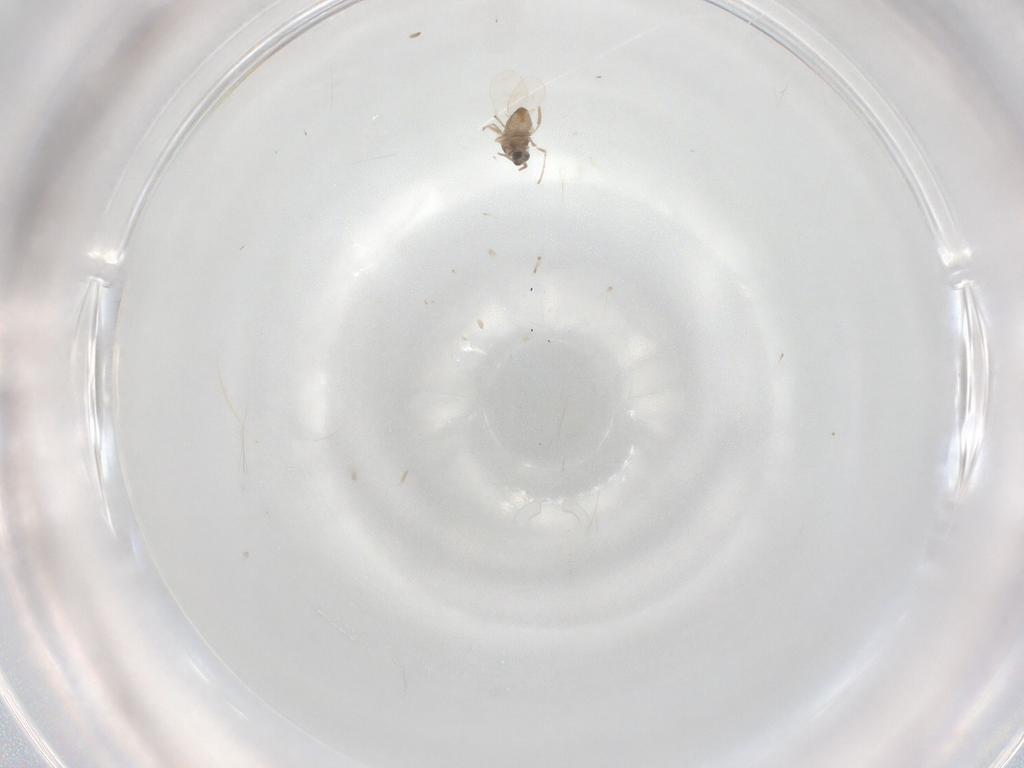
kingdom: Animalia
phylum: Arthropoda
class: Insecta
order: Diptera
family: Cecidomyiidae
